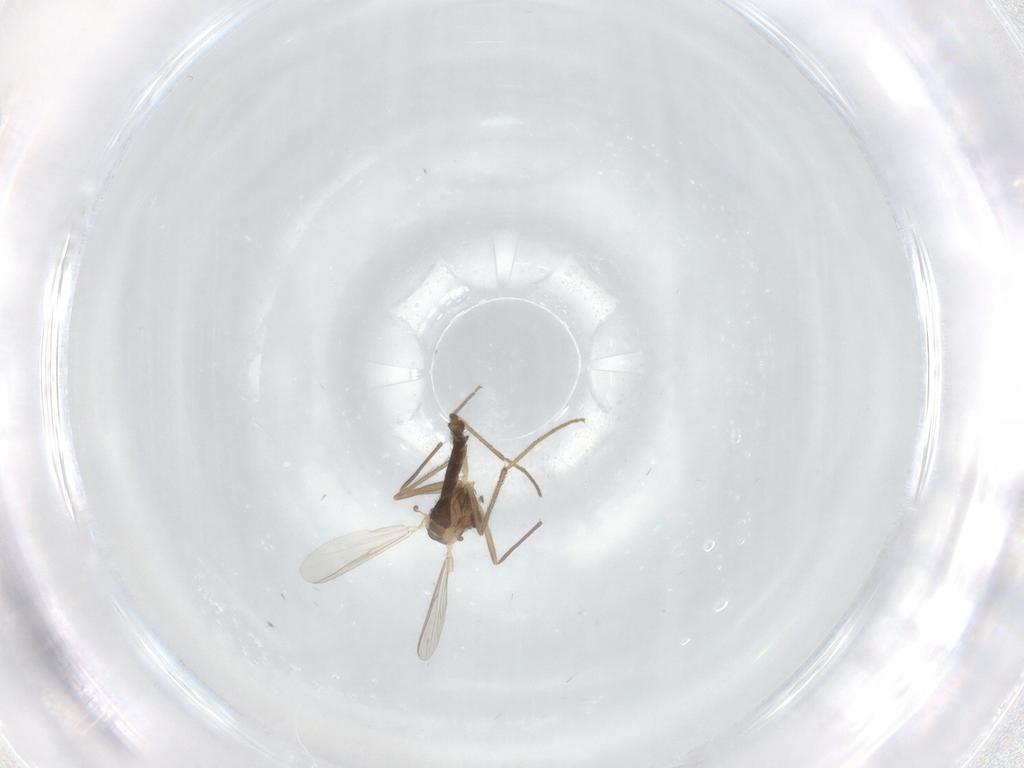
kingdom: Animalia
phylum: Arthropoda
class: Insecta
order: Diptera
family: Chironomidae
